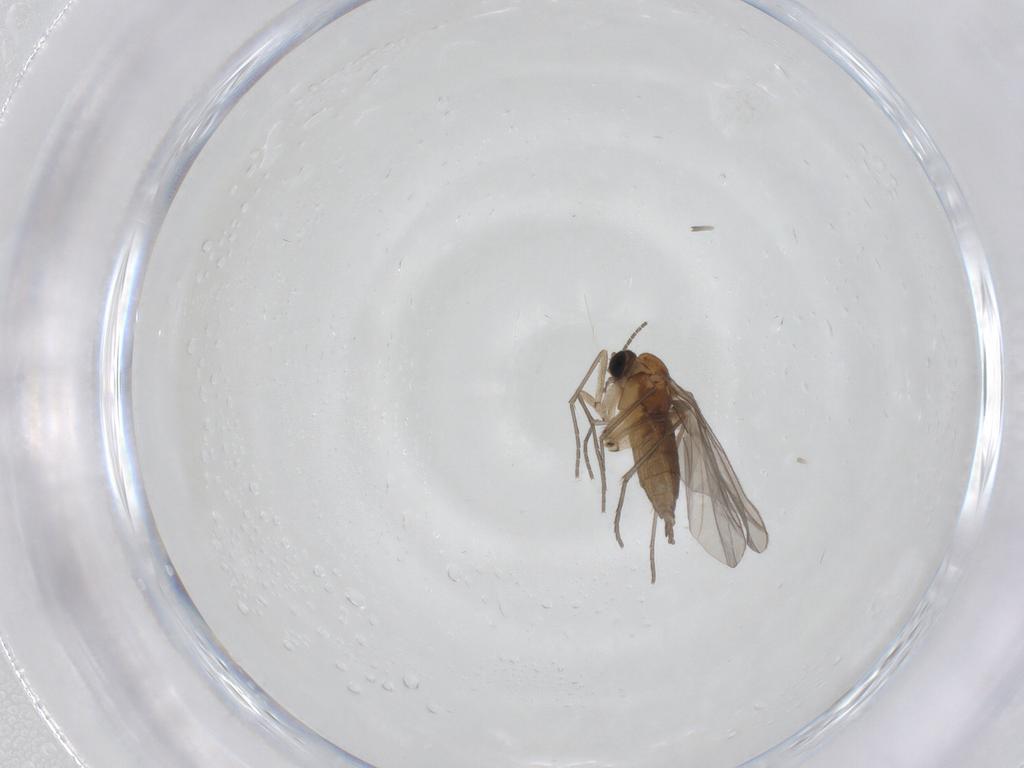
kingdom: Animalia
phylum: Arthropoda
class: Insecta
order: Diptera
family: Sciaridae
